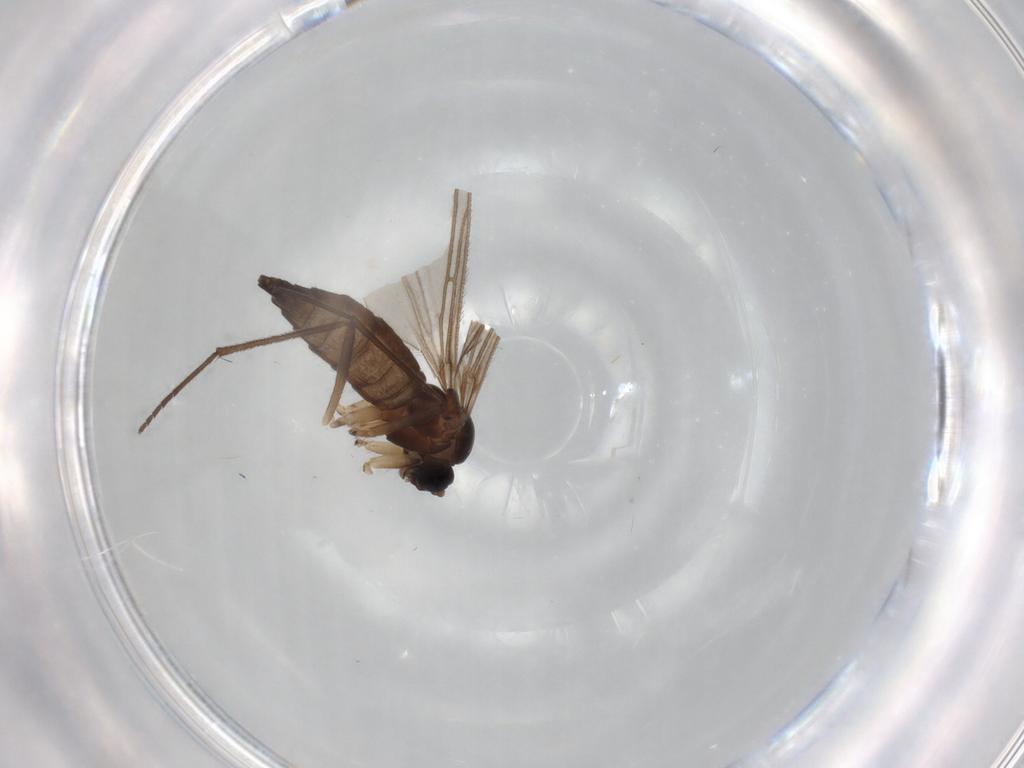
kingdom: Animalia
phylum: Arthropoda
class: Insecta
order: Diptera
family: Sciaridae
